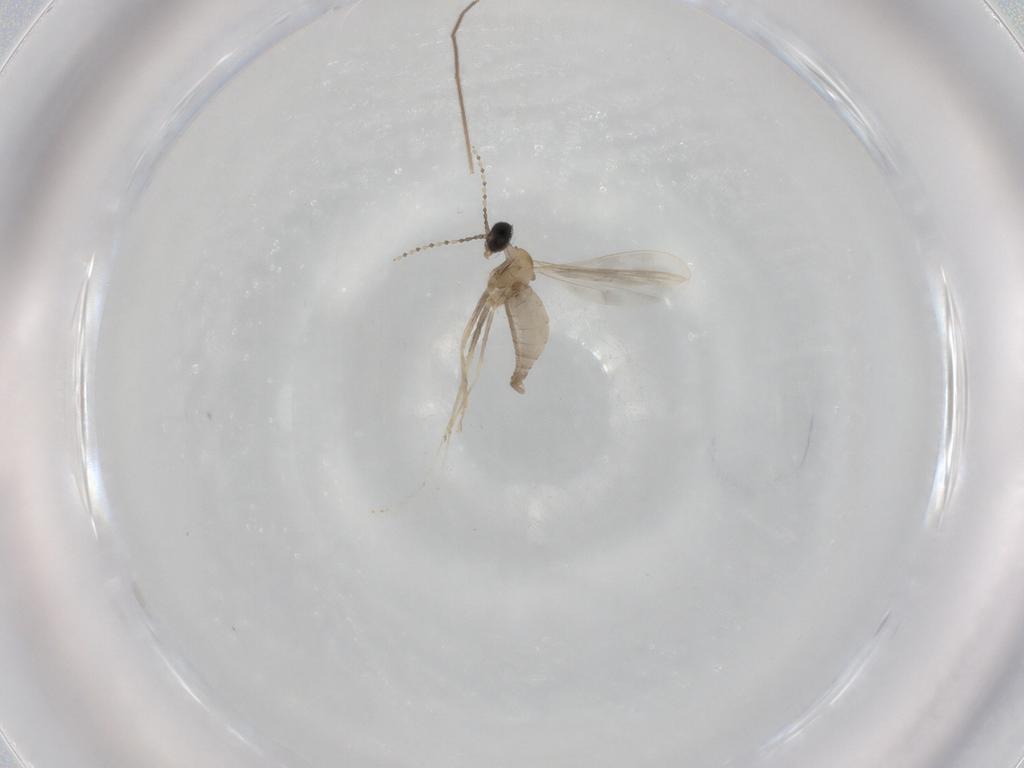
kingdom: Animalia
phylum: Arthropoda
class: Insecta
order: Diptera
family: Cecidomyiidae
